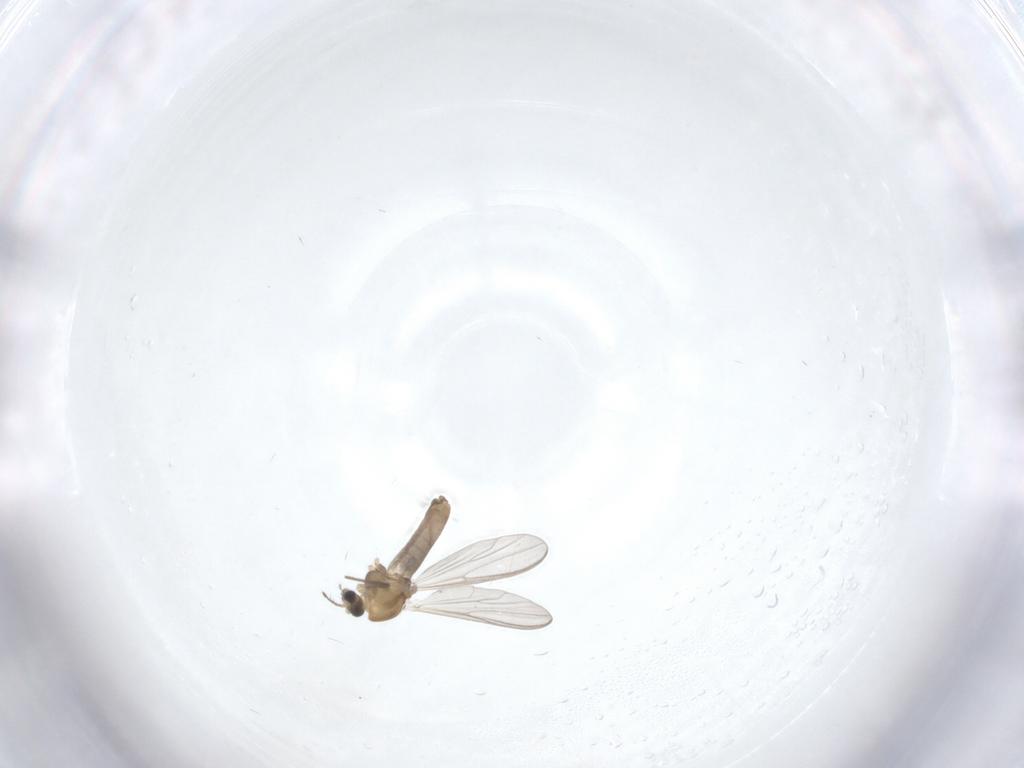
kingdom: Animalia
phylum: Arthropoda
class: Insecta
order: Diptera
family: Chironomidae
